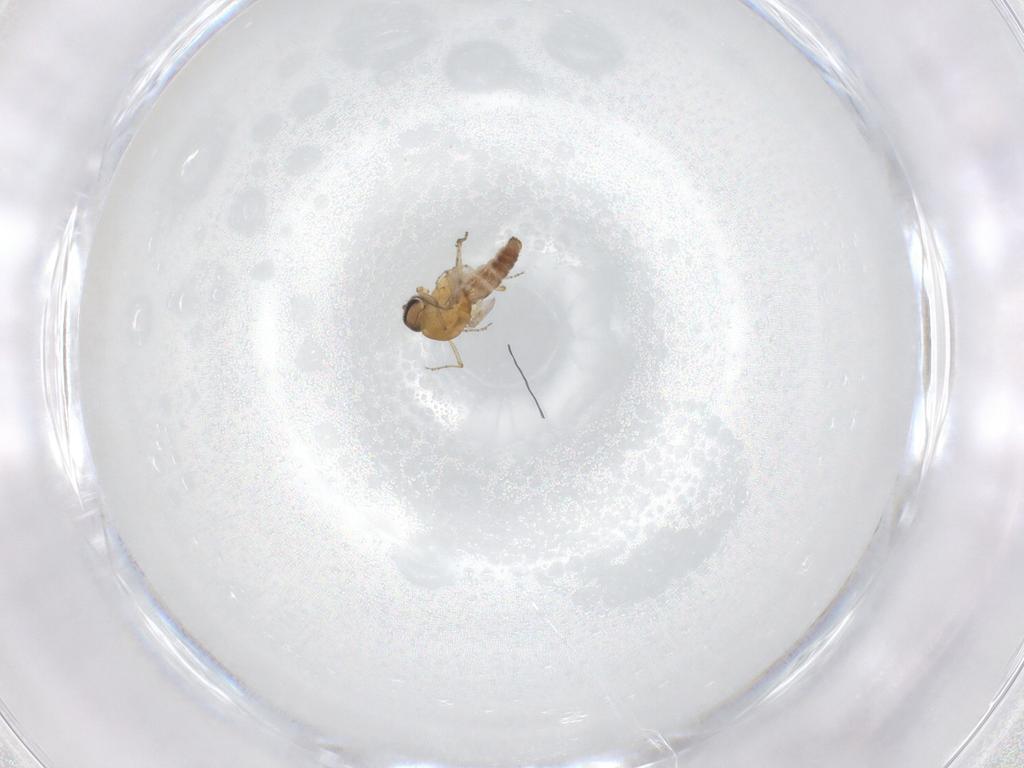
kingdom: Animalia
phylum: Arthropoda
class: Insecta
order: Diptera
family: Ceratopogonidae
